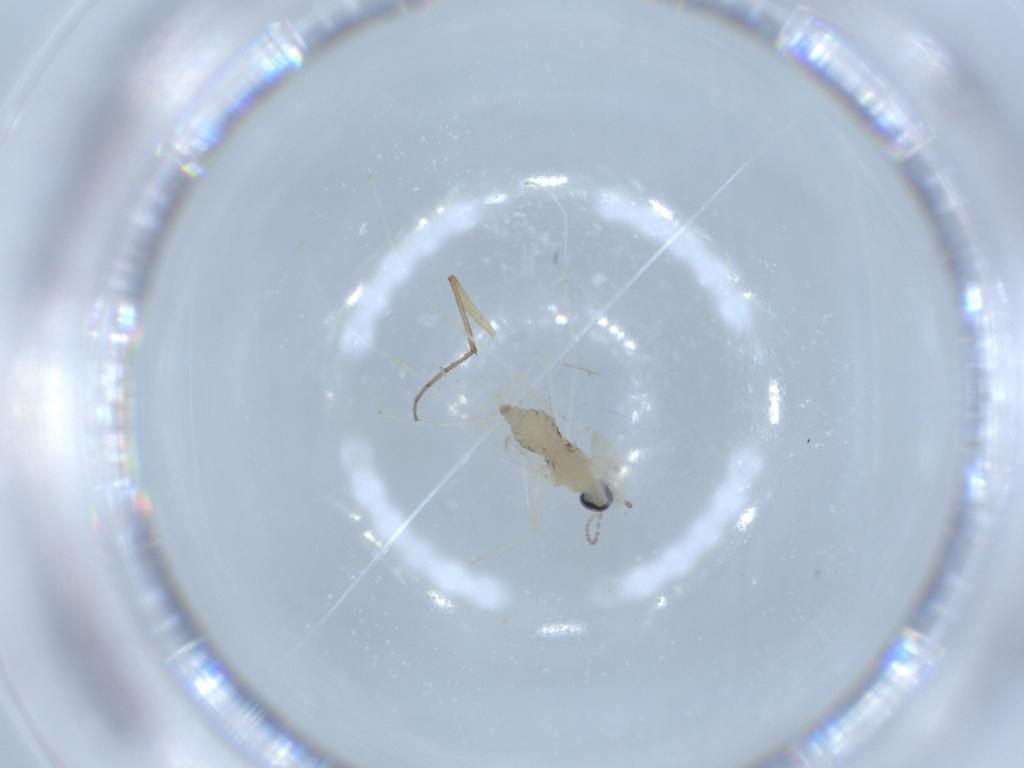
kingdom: Animalia
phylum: Arthropoda
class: Insecta
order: Diptera
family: Cecidomyiidae
